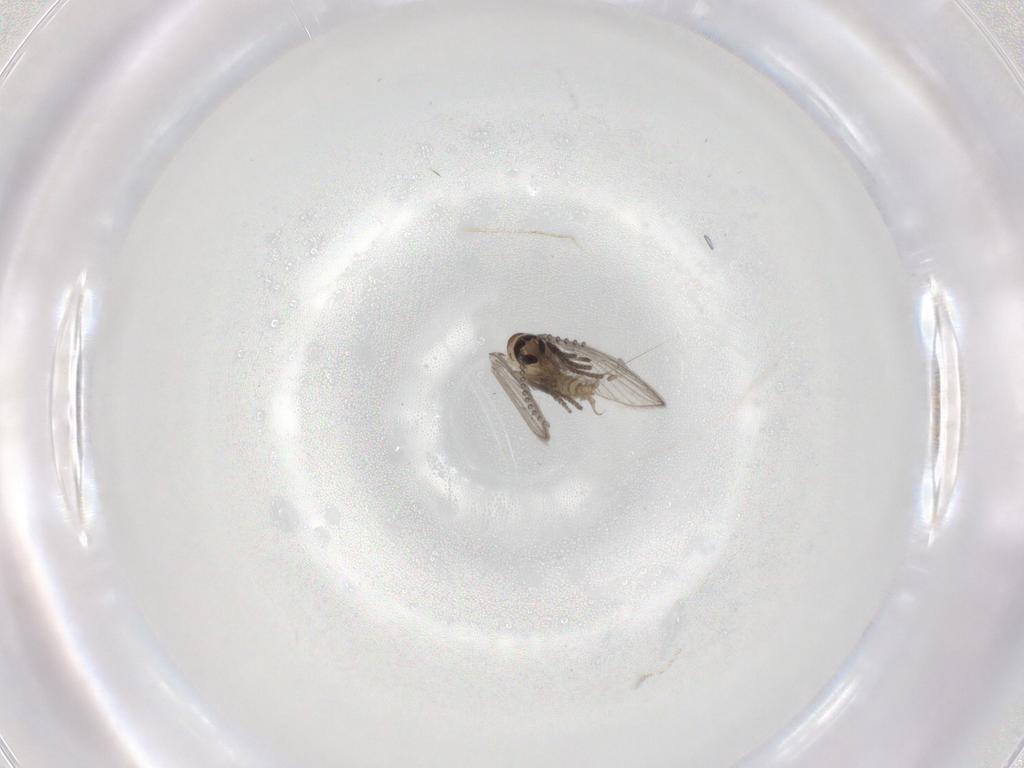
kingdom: Animalia
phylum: Arthropoda
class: Insecta
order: Diptera
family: Psychodidae
